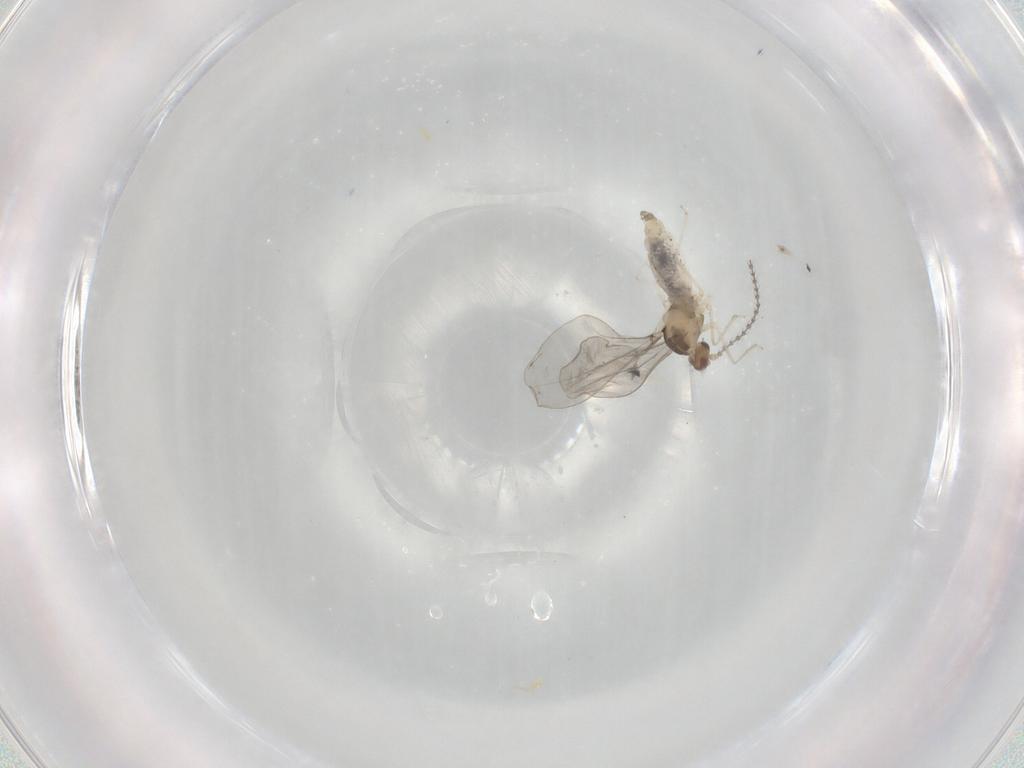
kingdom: Animalia
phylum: Arthropoda
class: Insecta
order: Diptera
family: Cecidomyiidae
